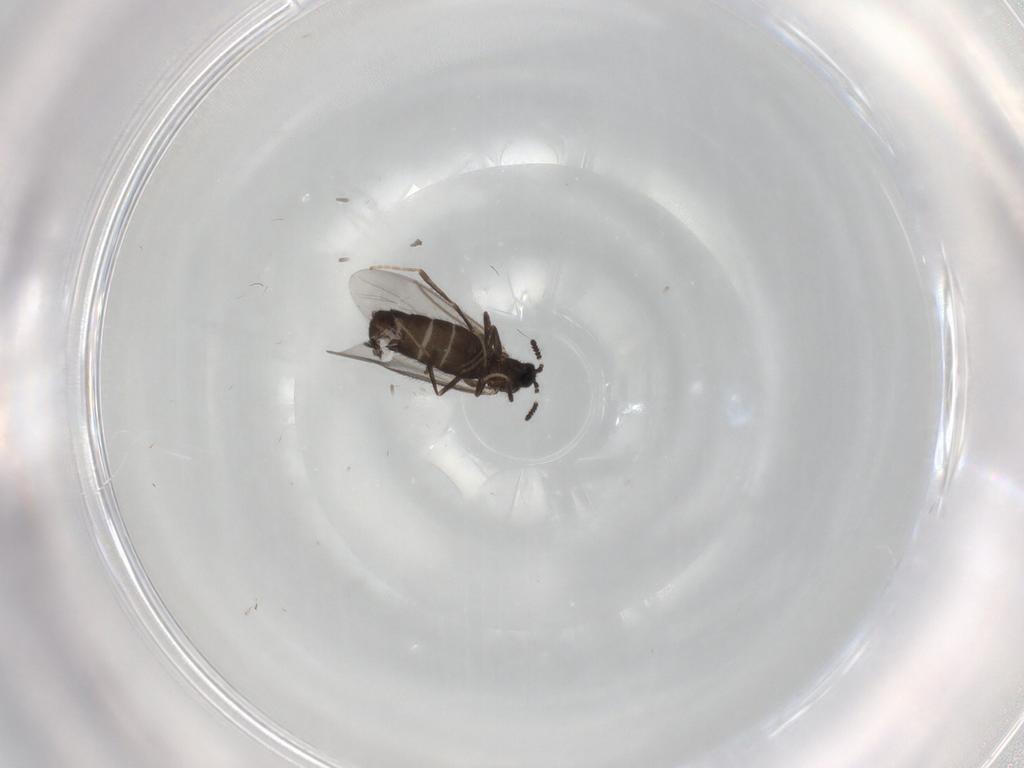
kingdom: Animalia
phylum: Arthropoda
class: Insecta
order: Diptera
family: Scatopsidae
